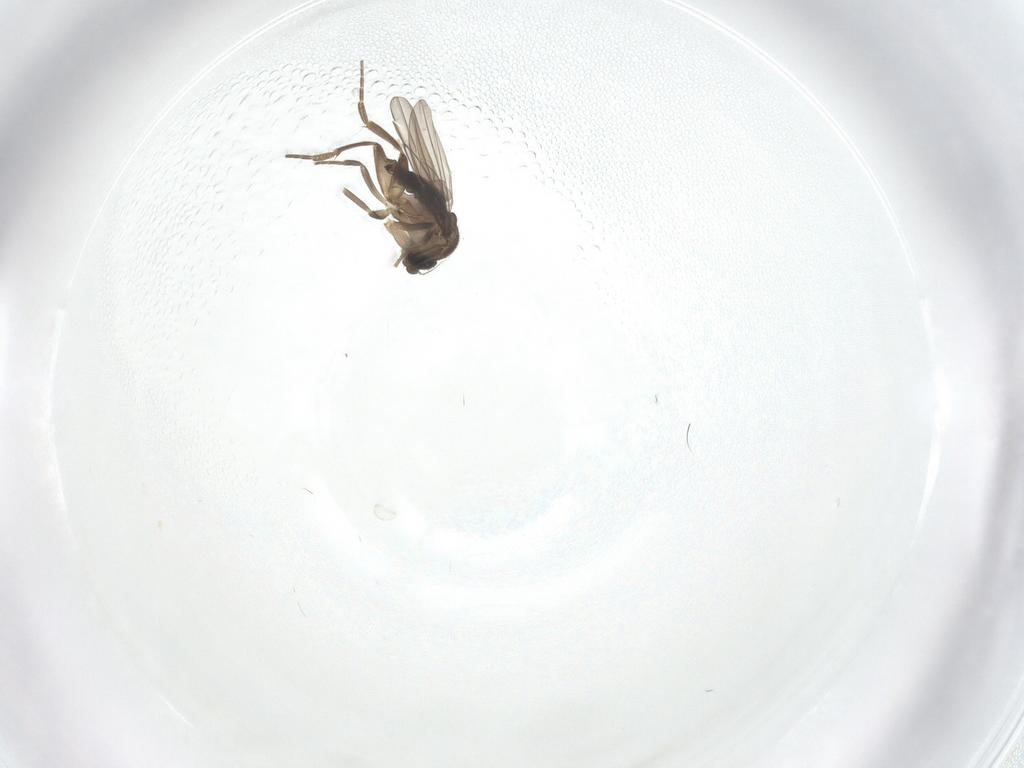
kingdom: Animalia
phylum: Arthropoda
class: Insecta
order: Diptera
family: Phoridae
